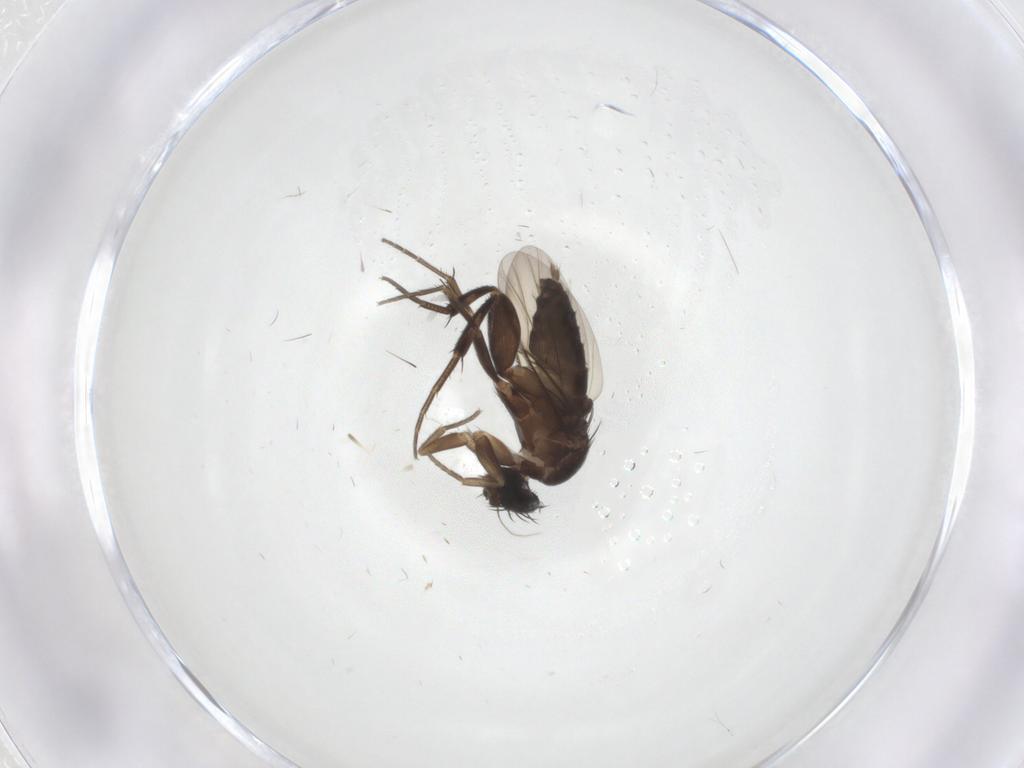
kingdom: Animalia
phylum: Arthropoda
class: Insecta
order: Diptera
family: Phoridae
